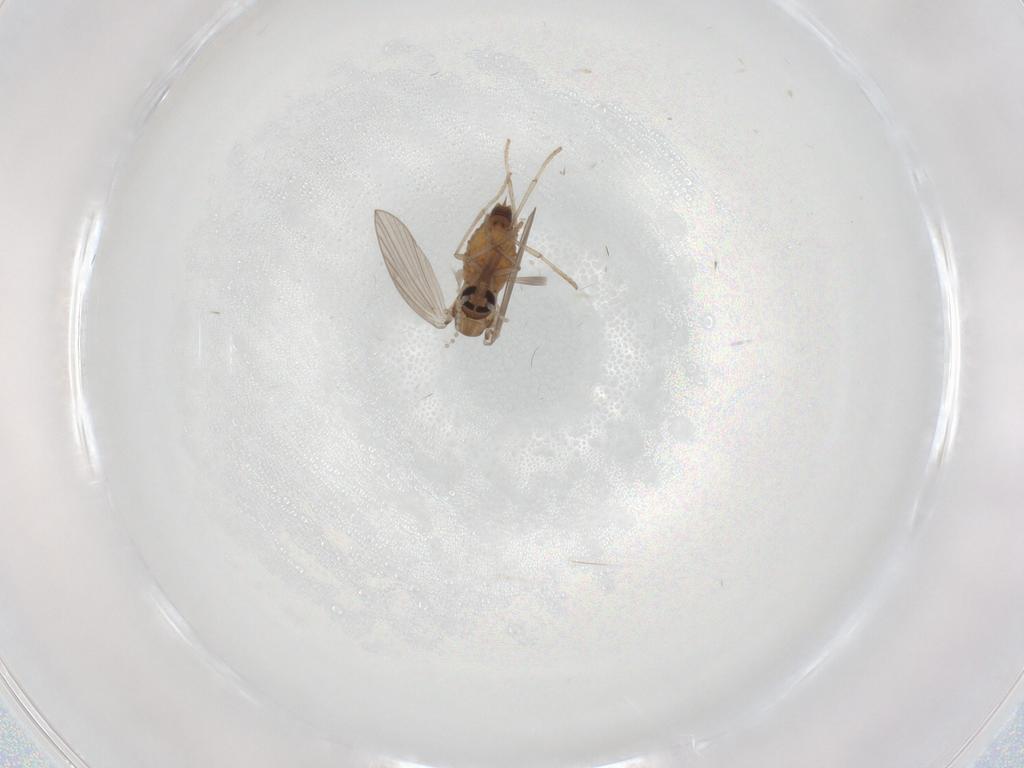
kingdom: Animalia
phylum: Arthropoda
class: Insecta
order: Diptera
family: Psychodidae
